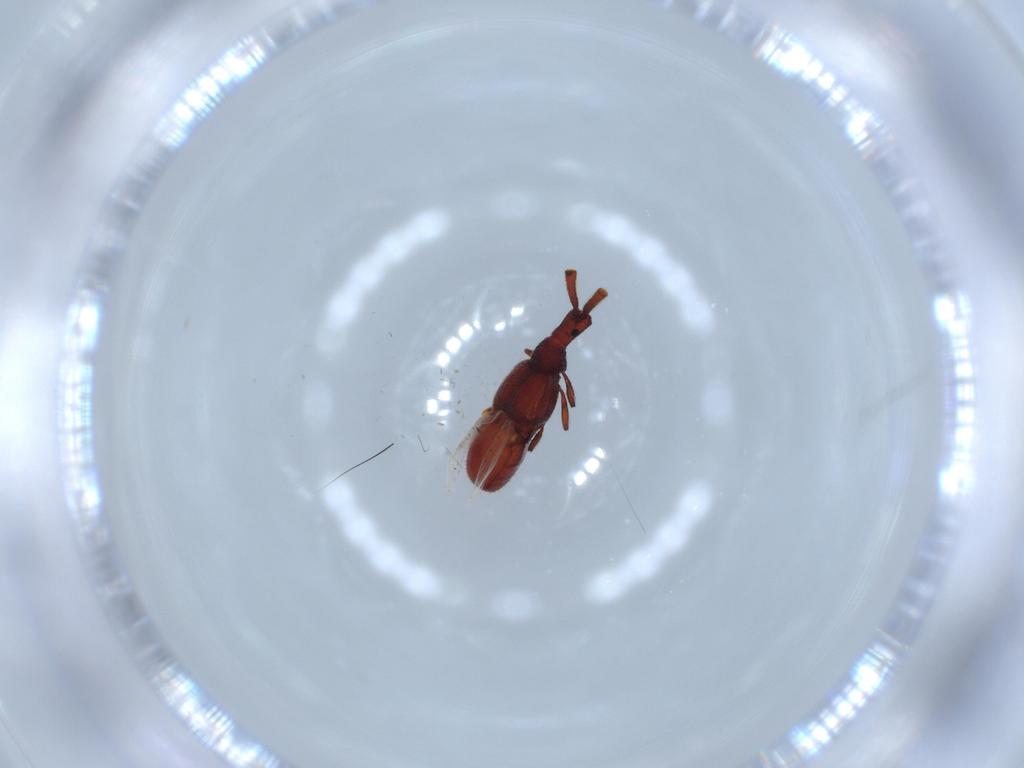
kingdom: Animalia
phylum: Arthropoda
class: Insecta
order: Coleoptera
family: Staphylinidae
